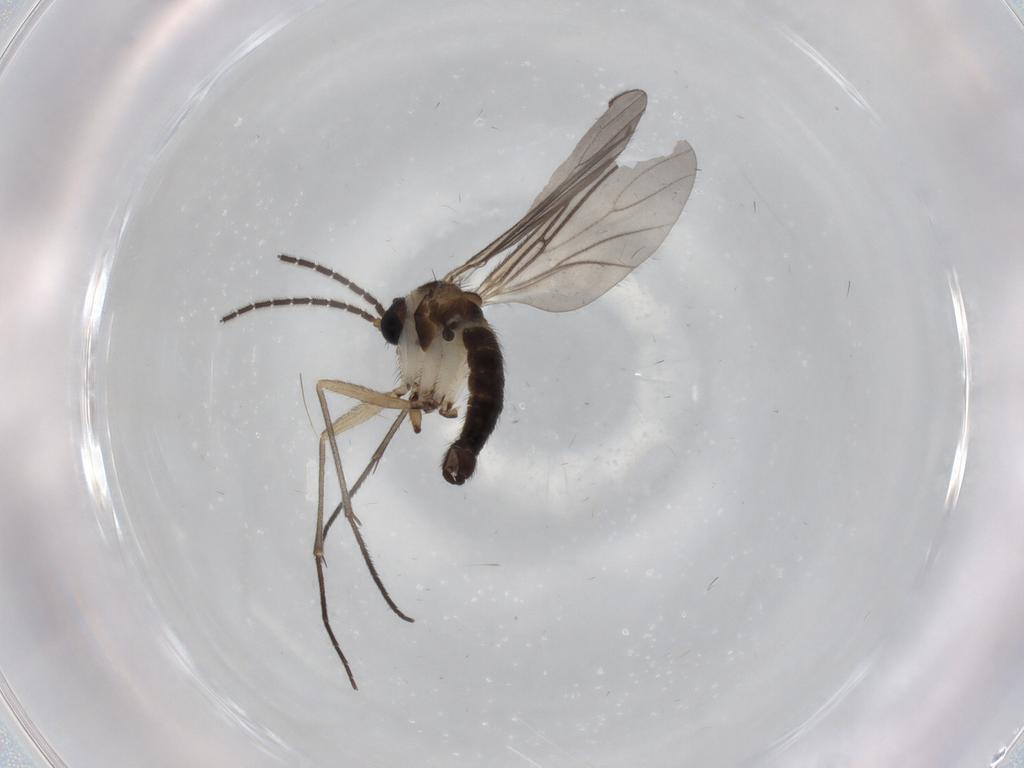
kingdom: Animalia
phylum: Arthropoda
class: Insecta
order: Diptera
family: Sciaridae
